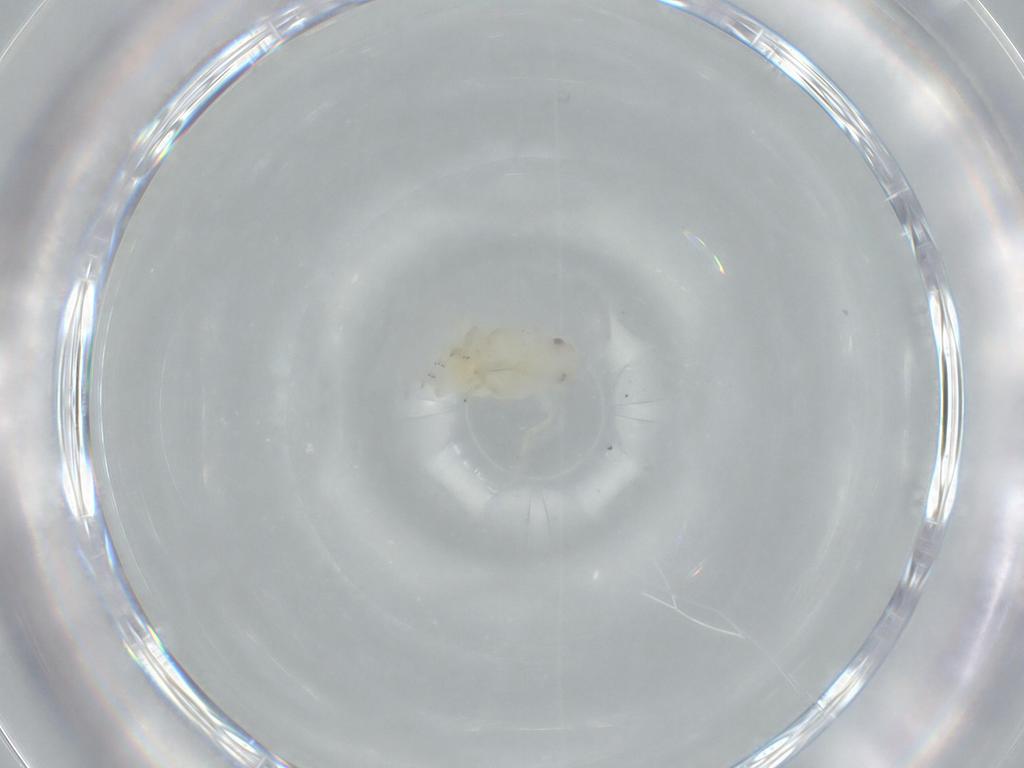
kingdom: Animalia
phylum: Arthropoda
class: Insecta
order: Hemiptera
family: Flatidae
